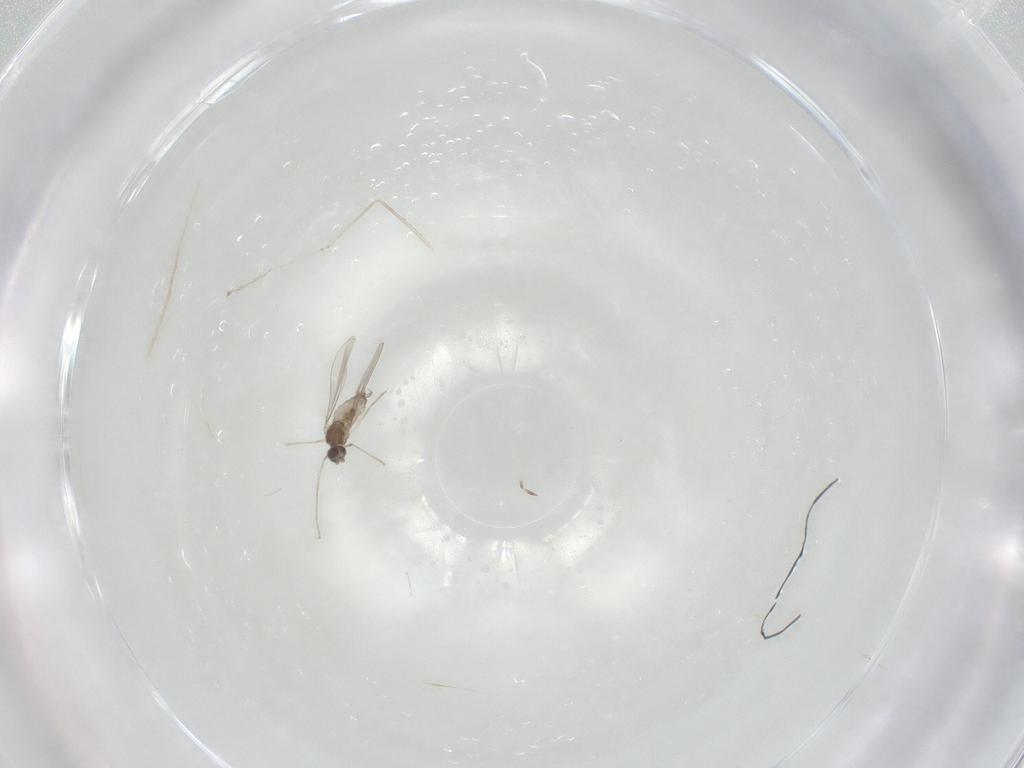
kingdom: Animalia
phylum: Arthropoda
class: Insecta
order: Diptera
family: Cecidomyiidae
